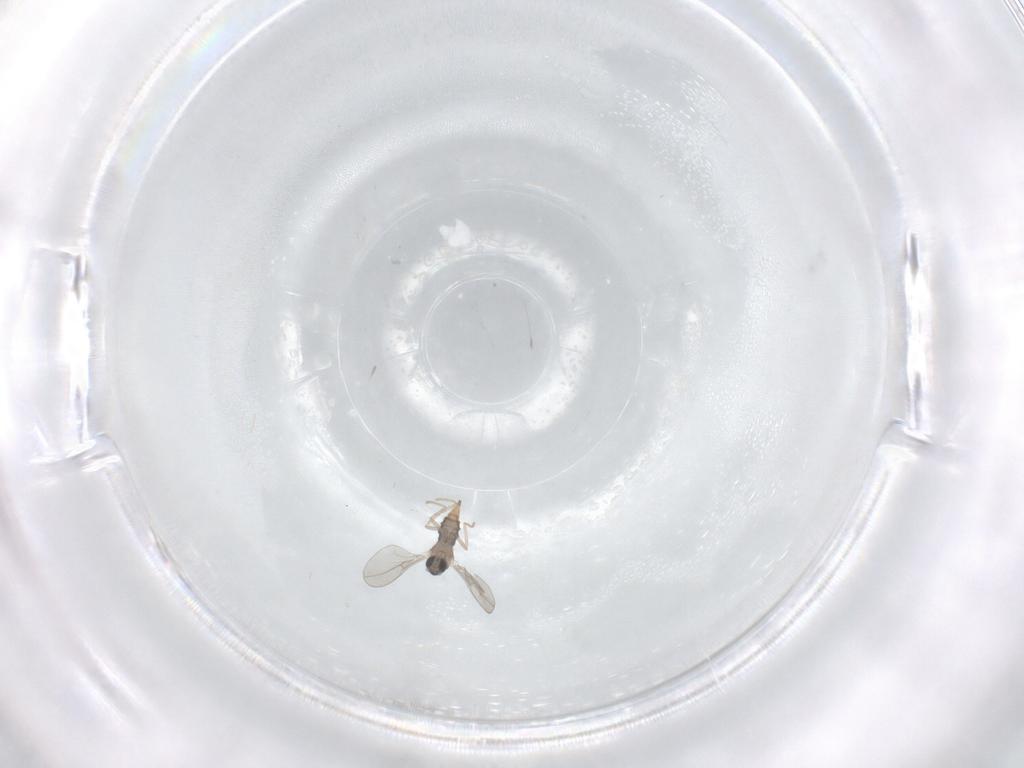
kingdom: Animalia
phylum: Arthropoda
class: Insecta
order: Diptera
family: Cecidomyiidae
